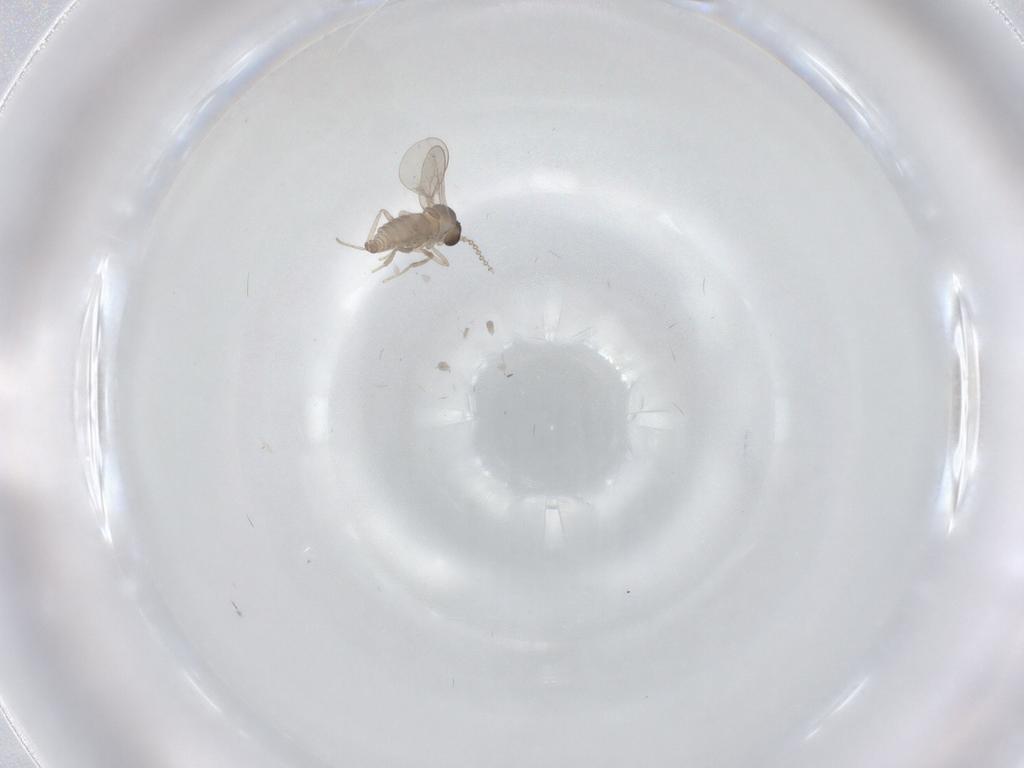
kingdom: Animalia
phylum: Arthropoda
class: Insecta
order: Diptera
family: Cecidomyiidae
